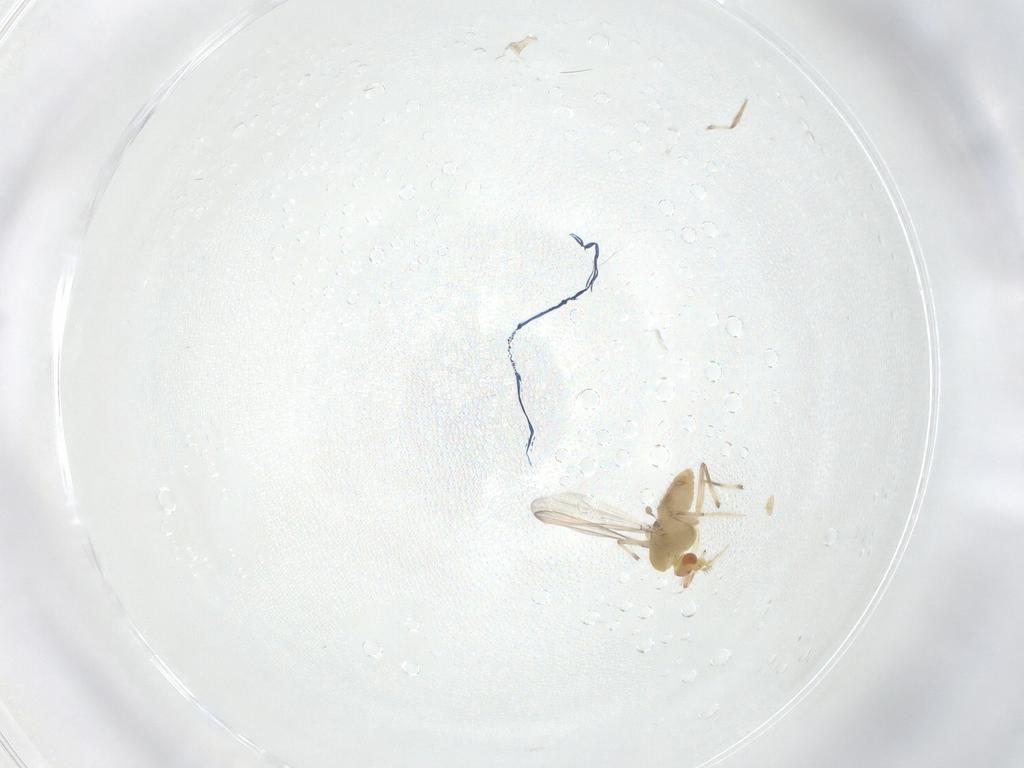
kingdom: Animalia
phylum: Arthropoda
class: Insecta
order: Diptera
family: Chironomidae
